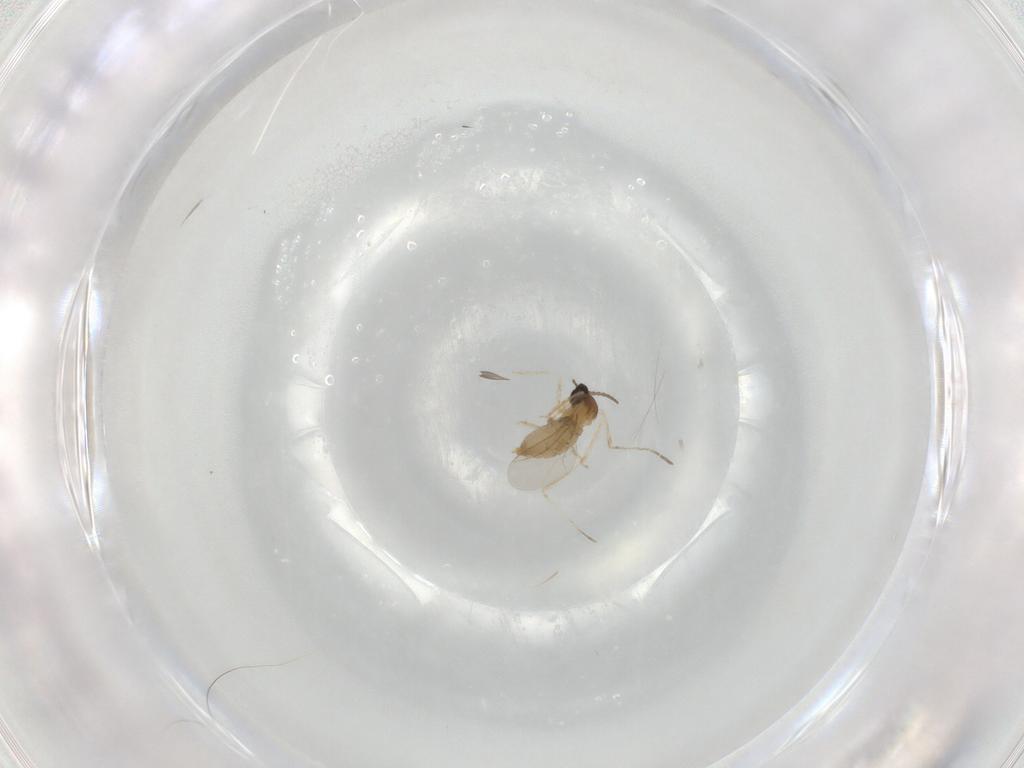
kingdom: Animalia
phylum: Arthropoda
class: Insecta
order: Diptera
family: Cecidomyiidae
